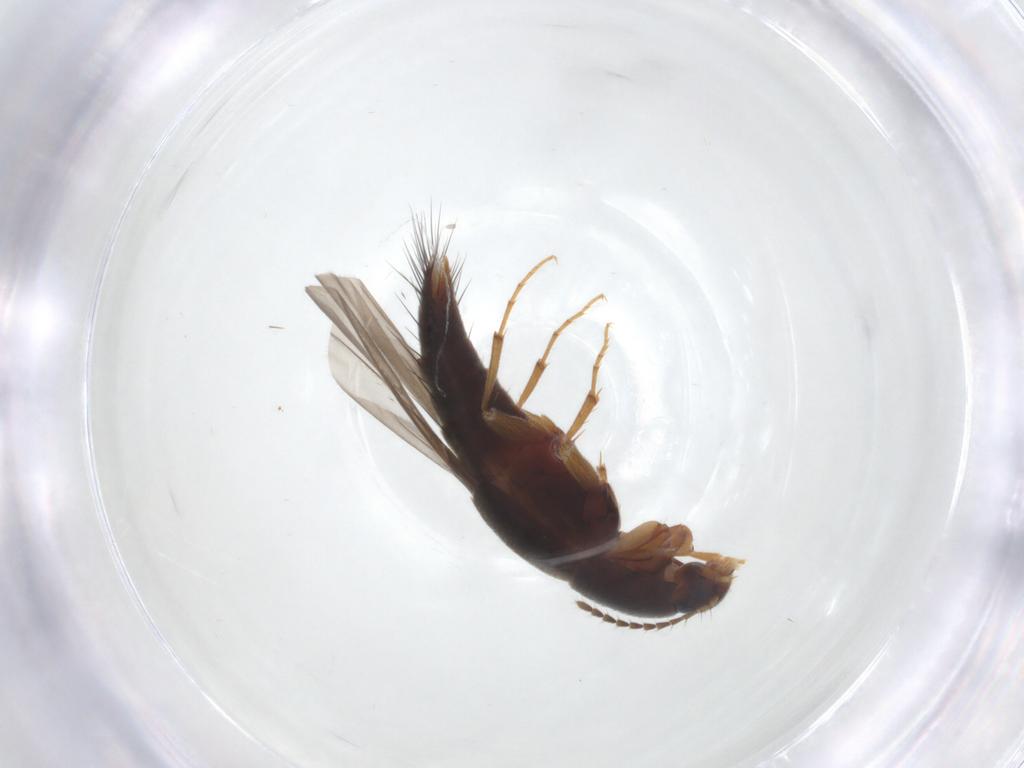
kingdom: Animalia
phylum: Arthropoda
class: Insecta
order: Coleoptera
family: Staphylinidae
